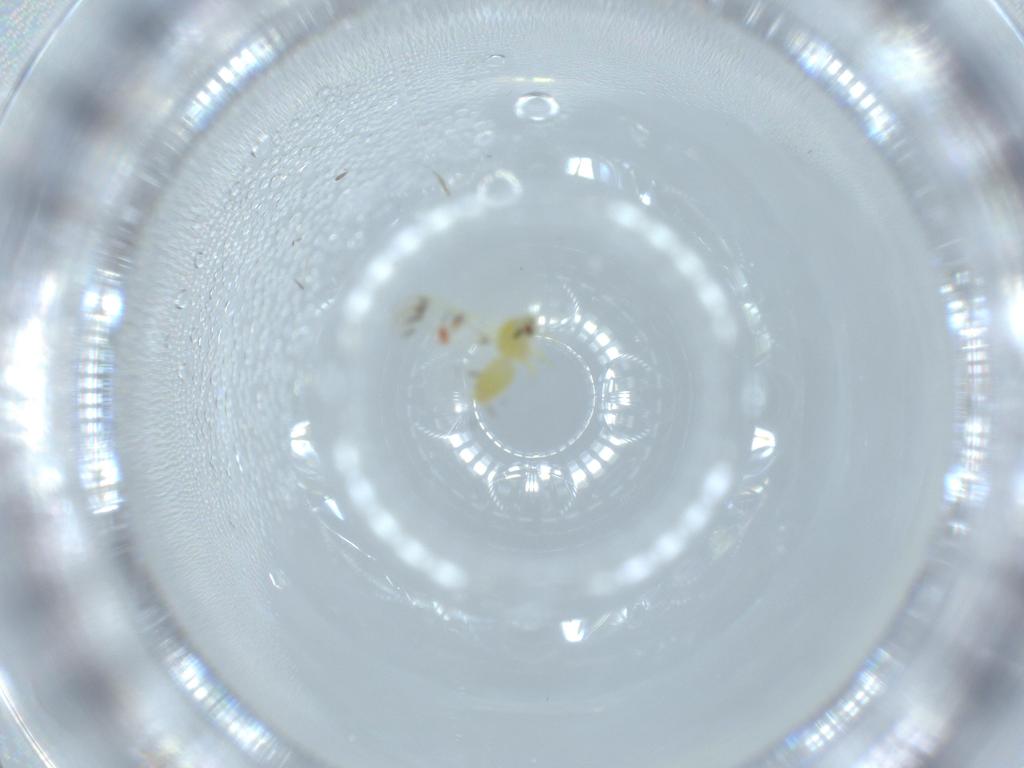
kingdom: Animalia
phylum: Arthropoda
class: Insecta
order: Hemiptera
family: Aleyrodidae
